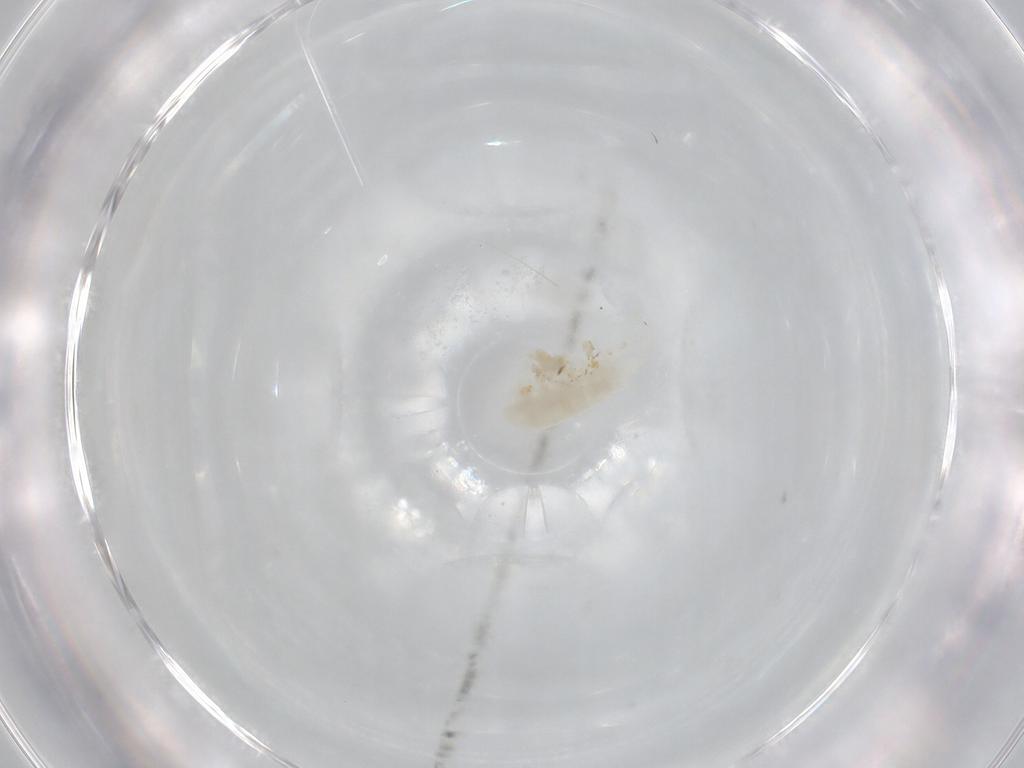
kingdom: Animalia
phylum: Arthropoda
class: Copepoda
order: Calanoida
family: Diaptomidae
